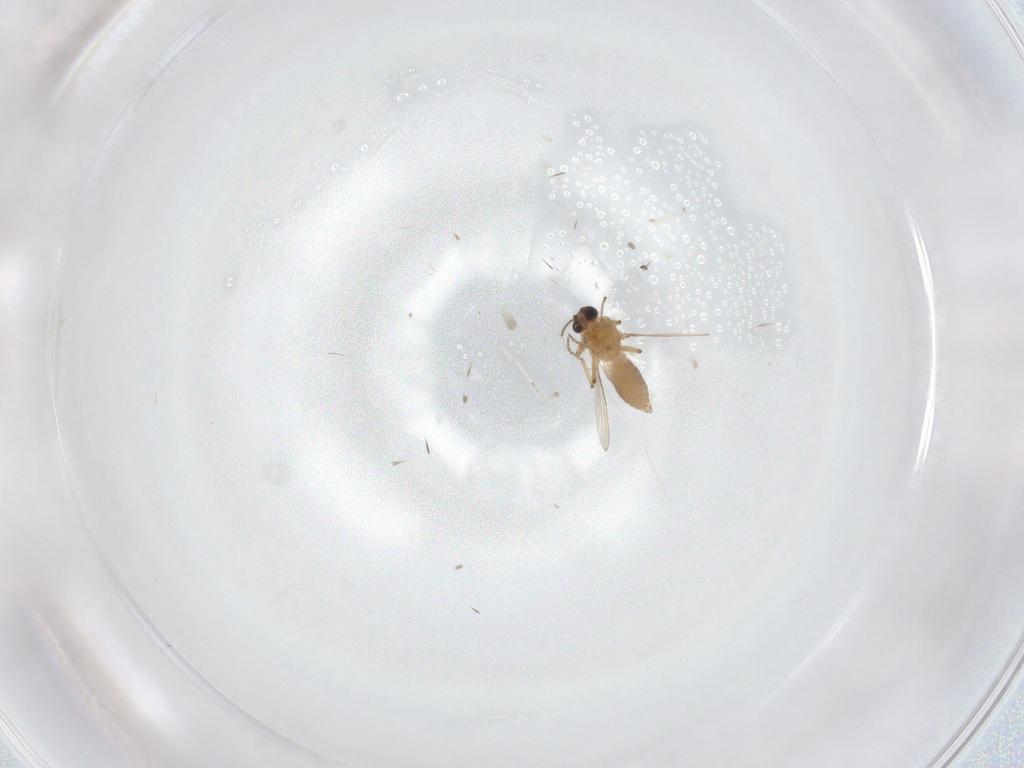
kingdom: Animalia
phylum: Arthropoda
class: Insecta
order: Diptera
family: Ceratopogonidae
